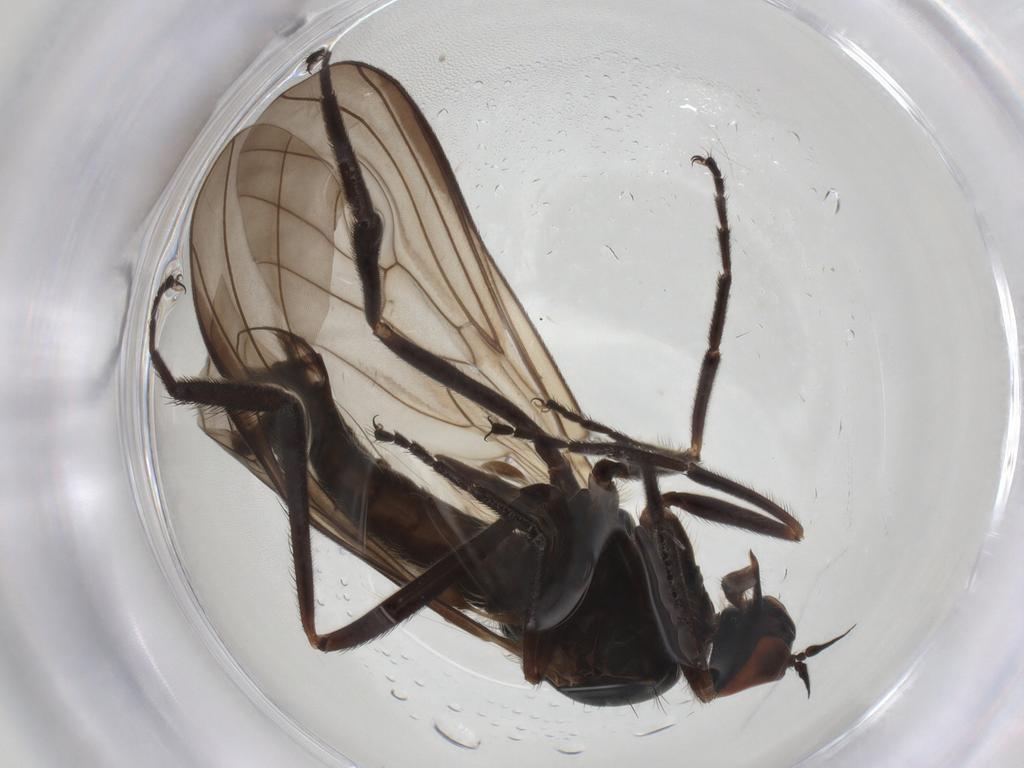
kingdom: Animalia
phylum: Arthropoda
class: Insecta
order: Diptera
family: Empididae
